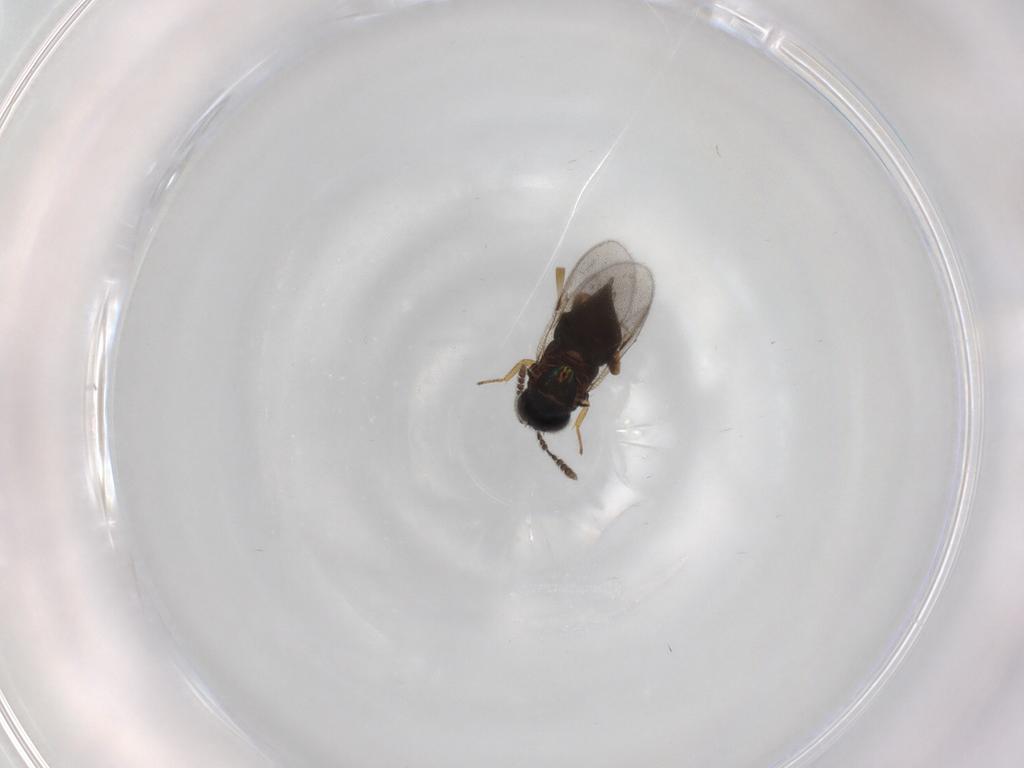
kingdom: Animalia
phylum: Arthropoda
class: Insecta
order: Hymenoptera
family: Encyrtidae
